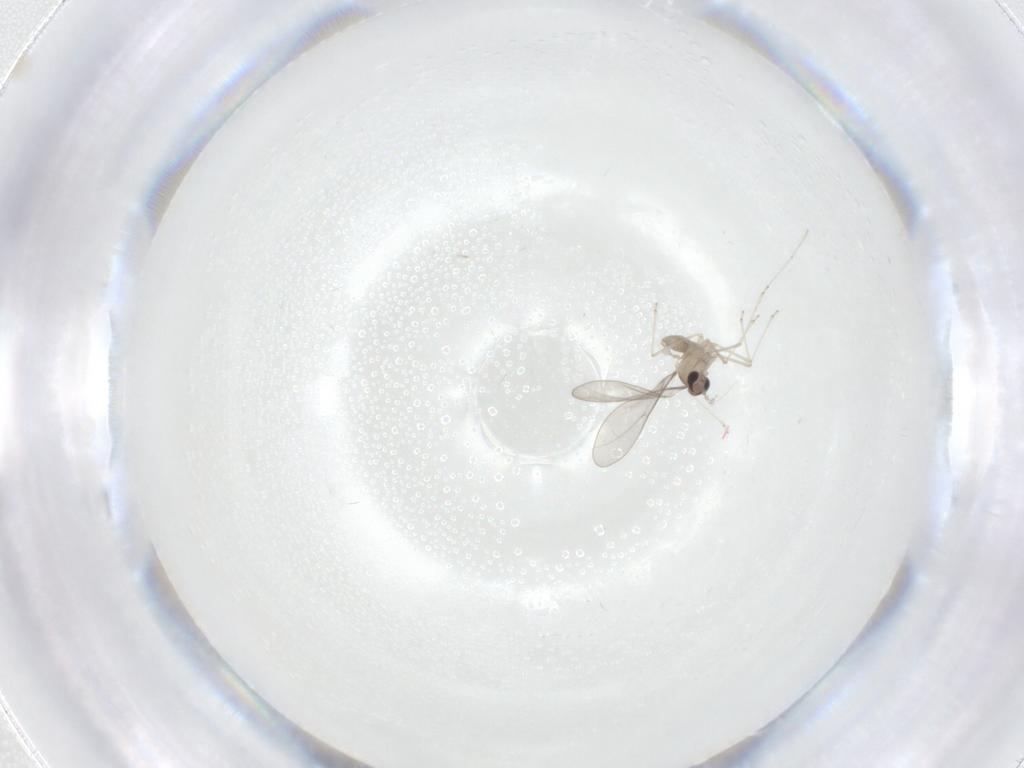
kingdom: Animalia
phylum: Arthropoda
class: Insecta
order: Diptera
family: Cecidomyiidae
